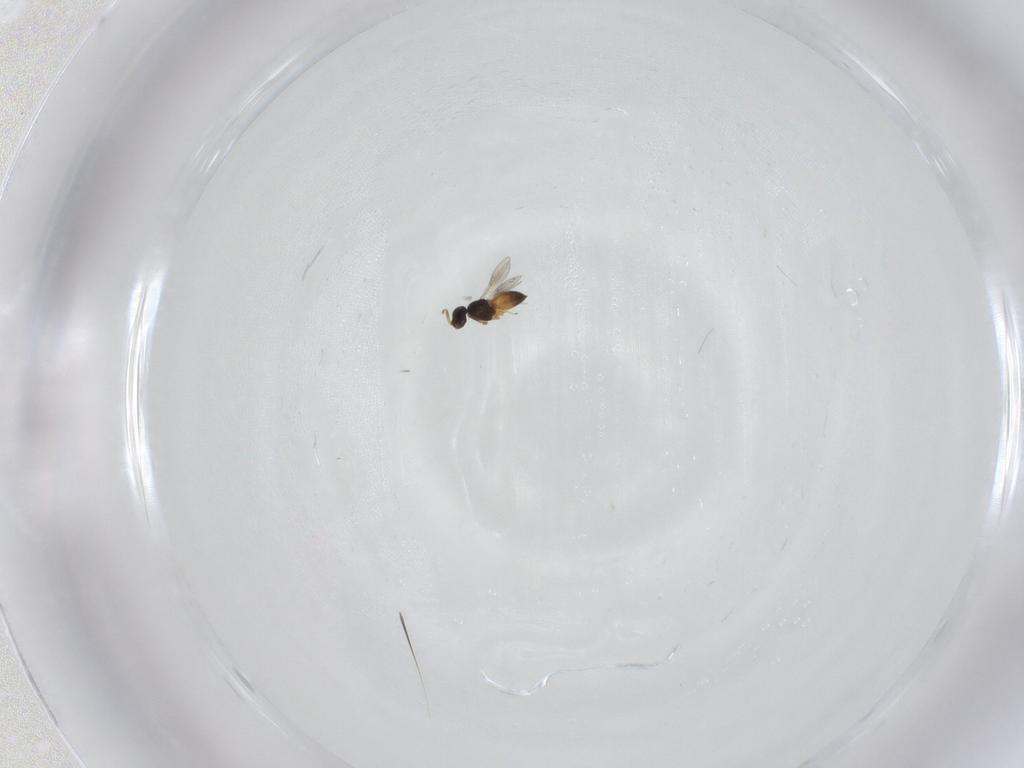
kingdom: Animalia
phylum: Arthropoda
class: Insecta
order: Hymenoptera
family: Scelionidae
